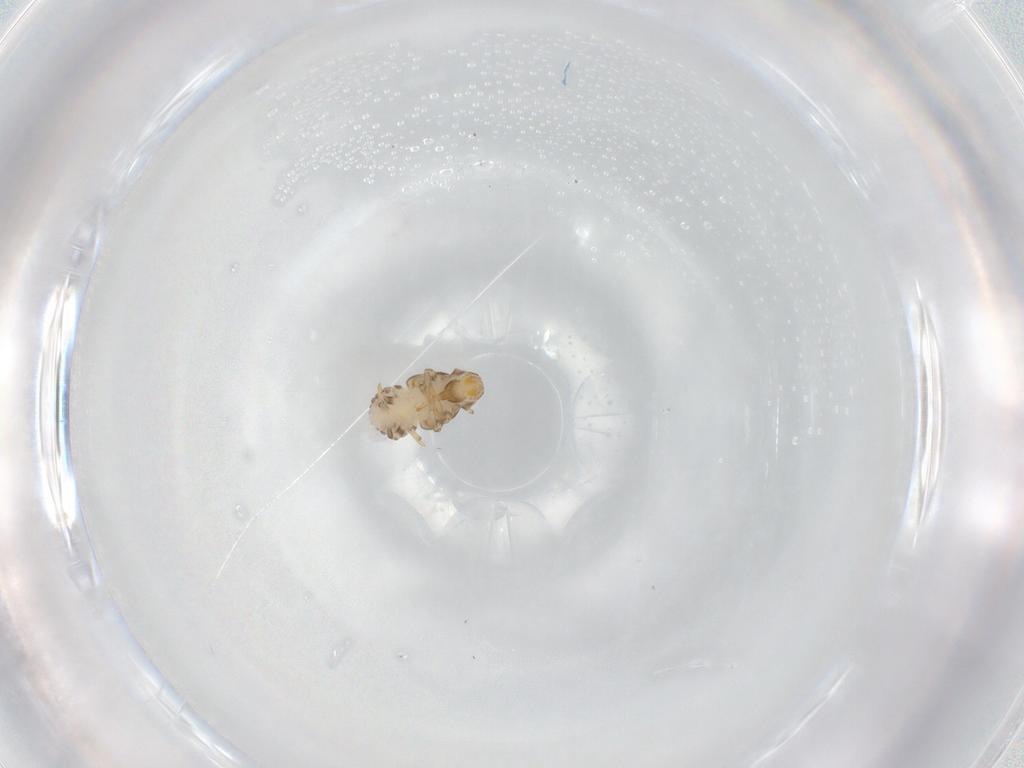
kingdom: Animalia
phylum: Arthropoda
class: Insecta
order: Hemiptera
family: Issidae
